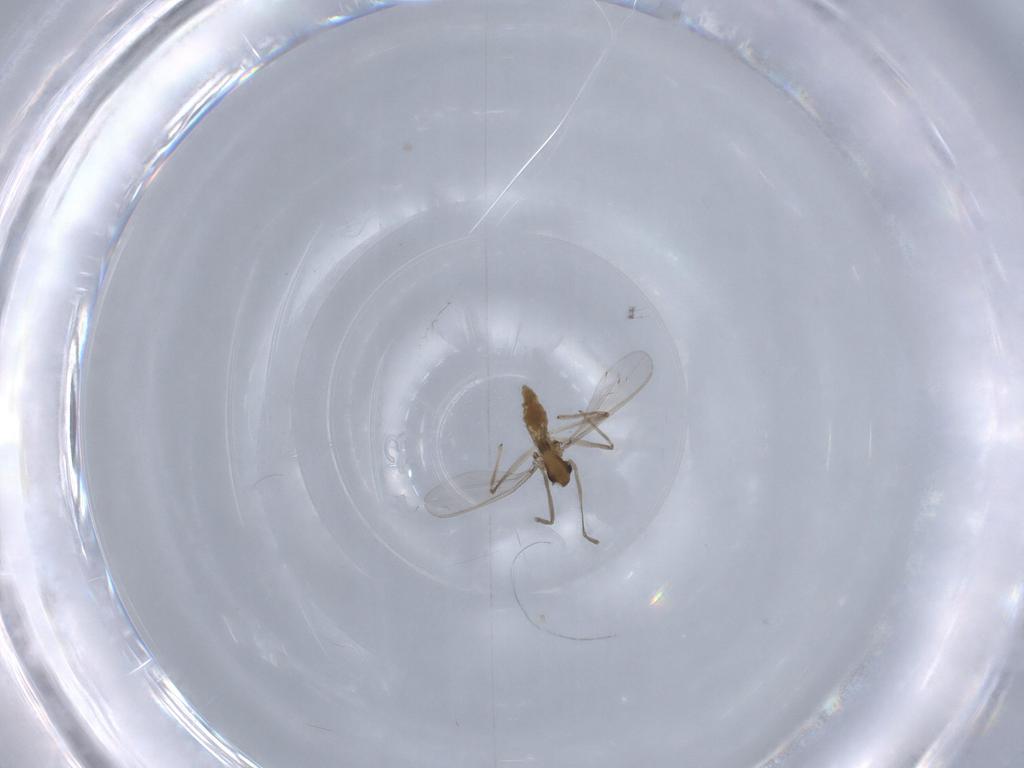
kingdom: Animalia
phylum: Arthropoda
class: Insecta
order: Diptera
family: Chironomidae
